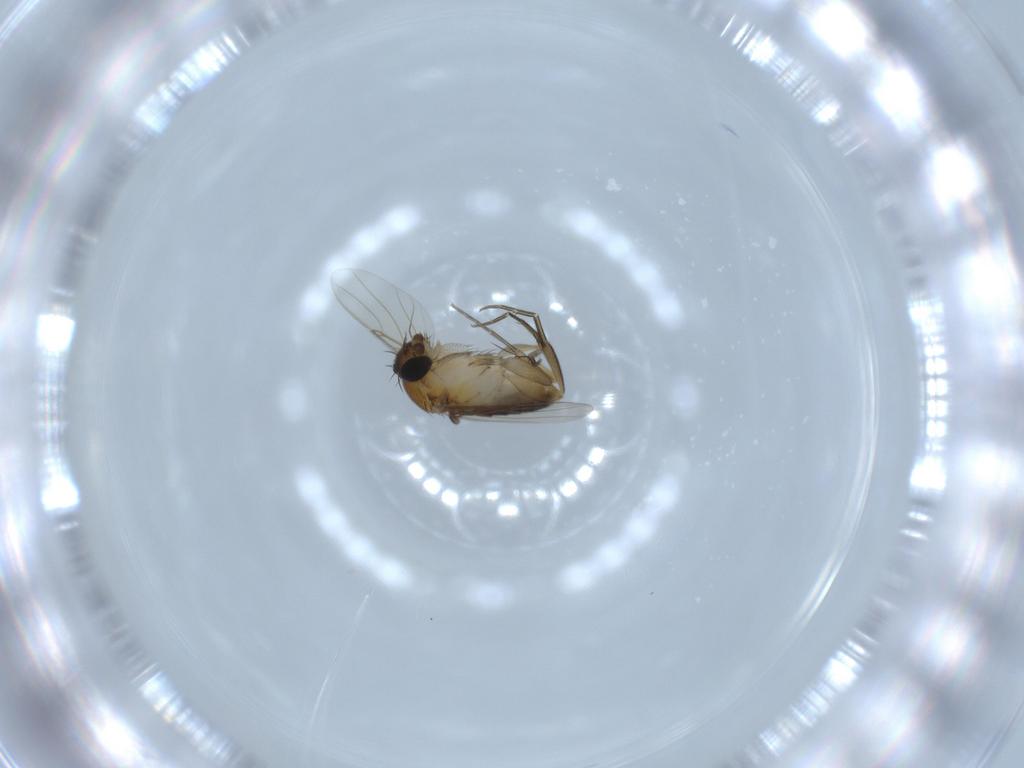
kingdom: Animalia
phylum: Arthropoda
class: Insecta
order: Diptera
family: Phoridae
